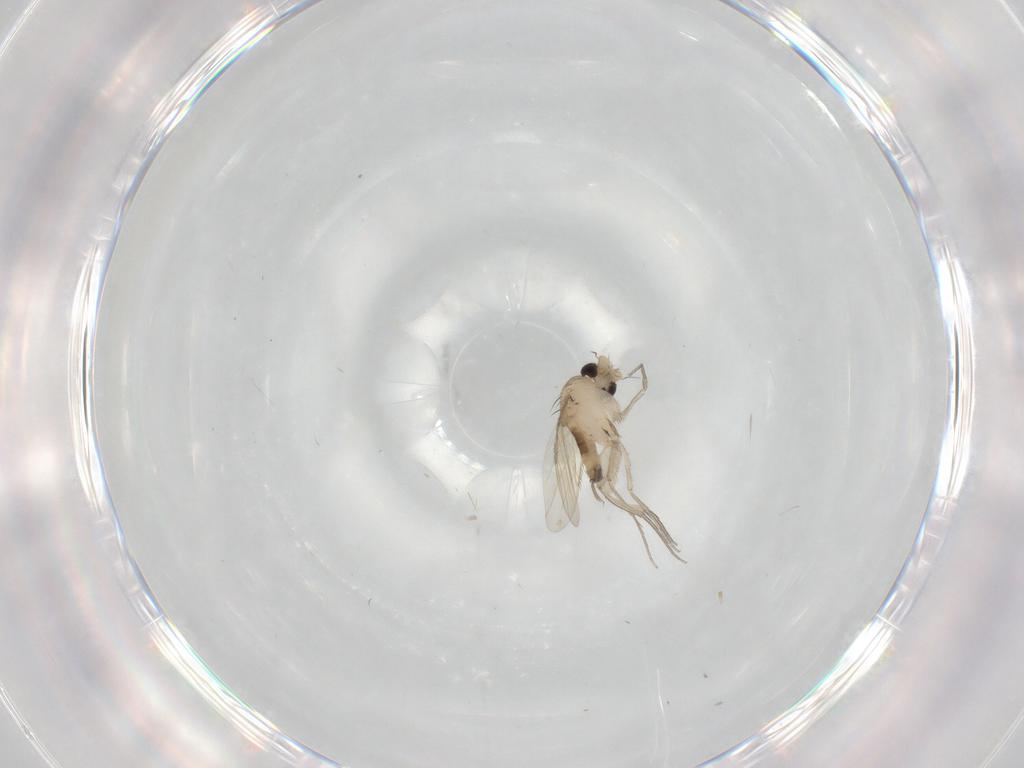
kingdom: Animalia
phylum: Arthropoda
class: Insecta
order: Diptera
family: Phoridae
